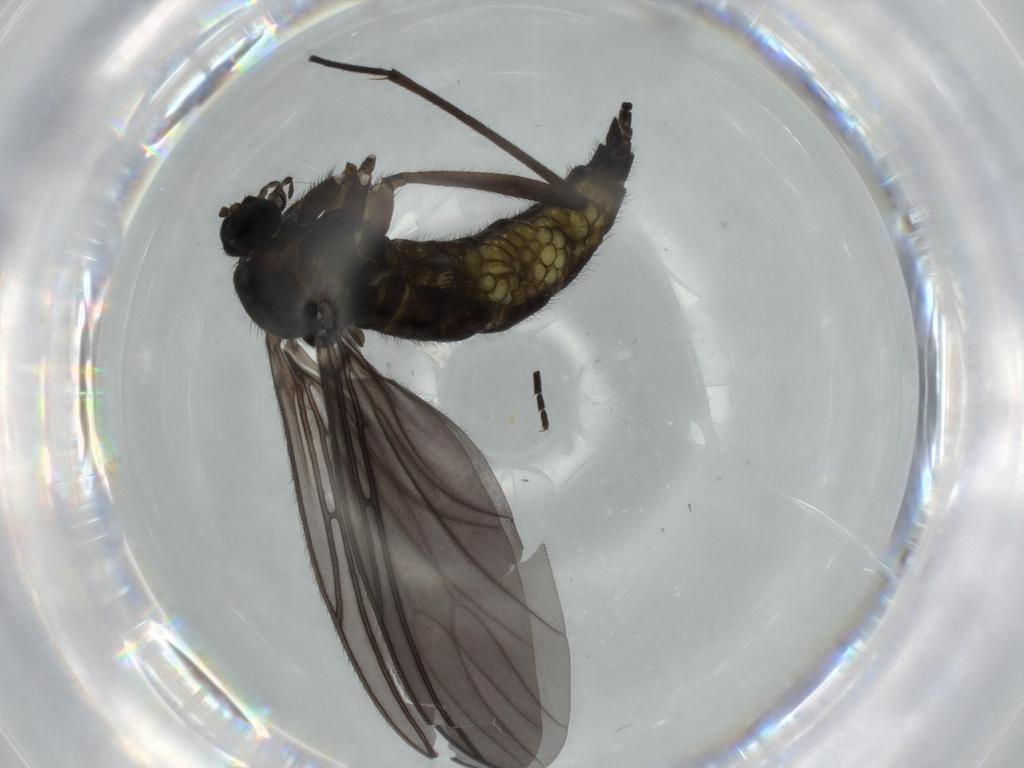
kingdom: Animalia
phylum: Arthropoda
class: Insecta
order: Diptera
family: Sciaridae
